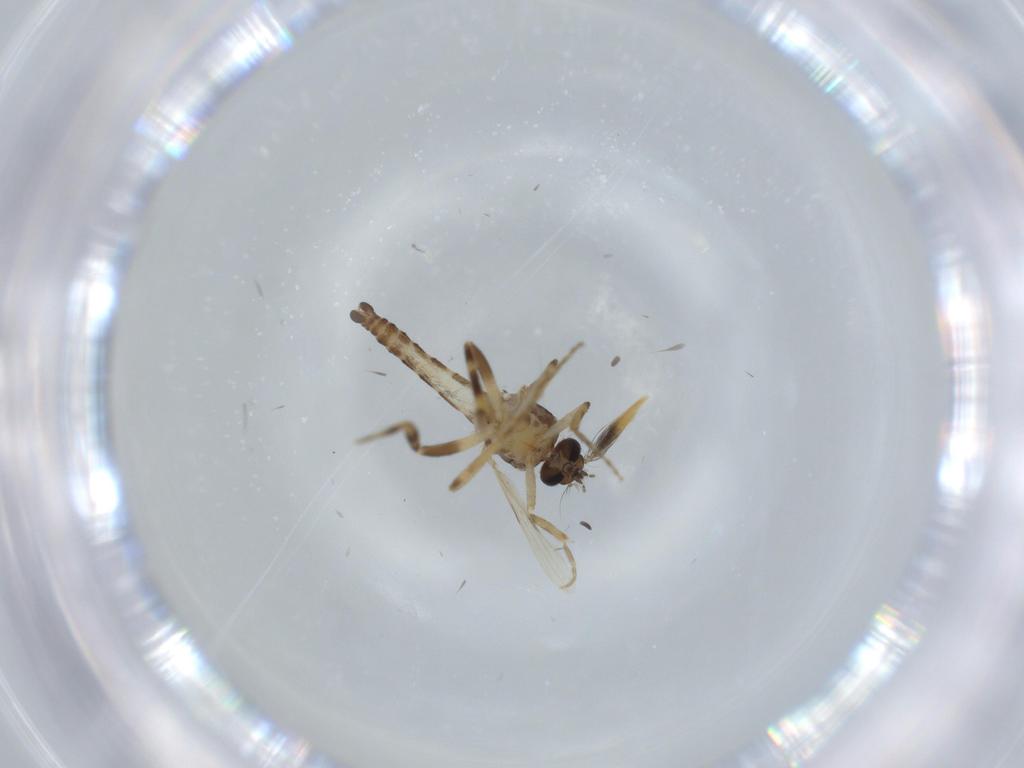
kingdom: Animalia
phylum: Arthropoda
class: Insecta
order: Diptera
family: Ceratopogonidae
